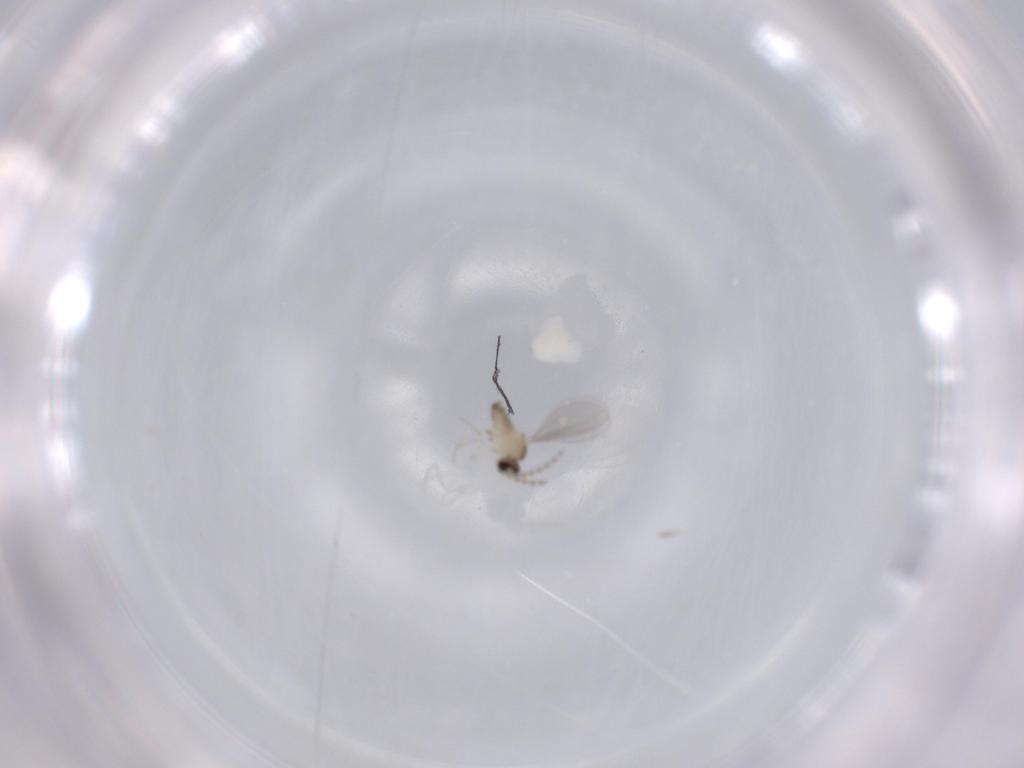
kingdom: Animalia
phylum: Arthropoda
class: Insecta
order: Diptera
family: Cecidomyiidae
